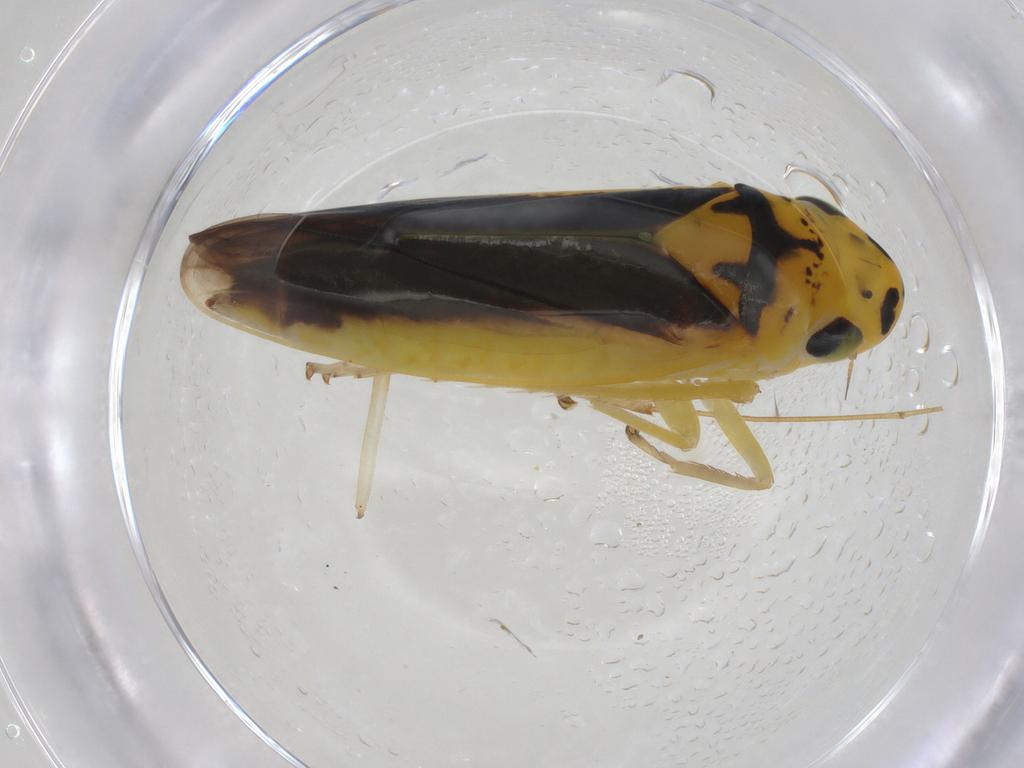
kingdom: Animalia
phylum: Arthropoda
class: Insecta
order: Hemiptera
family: Cicadellidae
